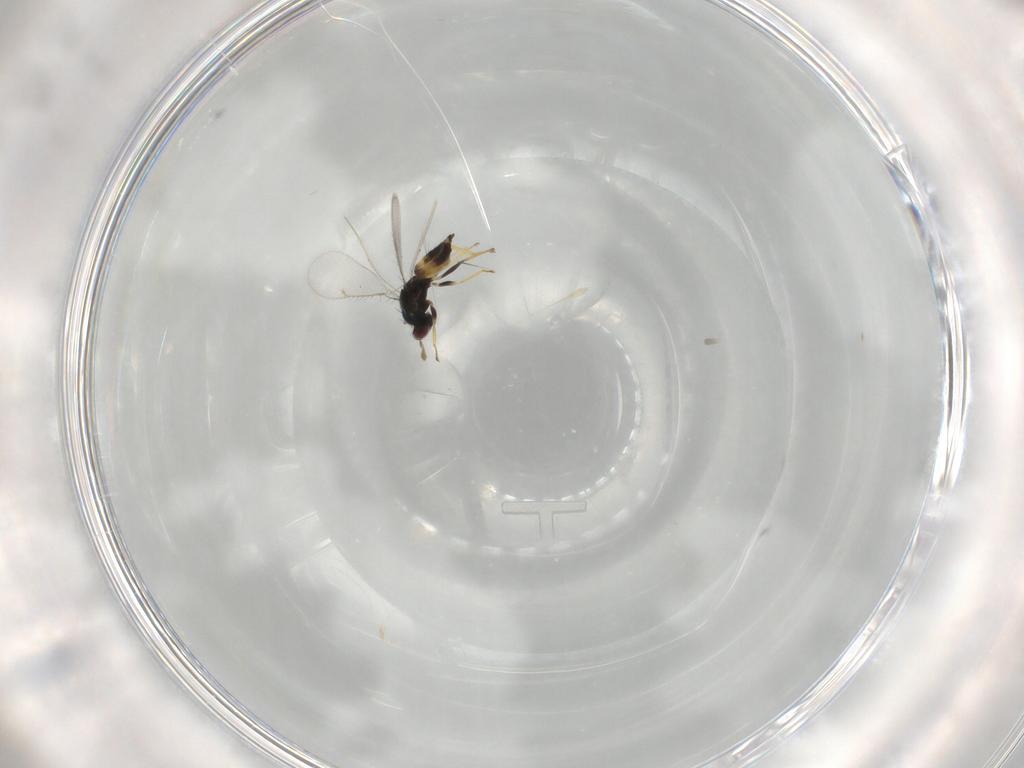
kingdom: Animalia
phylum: Arthropoda
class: Insecta
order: Hymenoptera
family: Eulophidae
